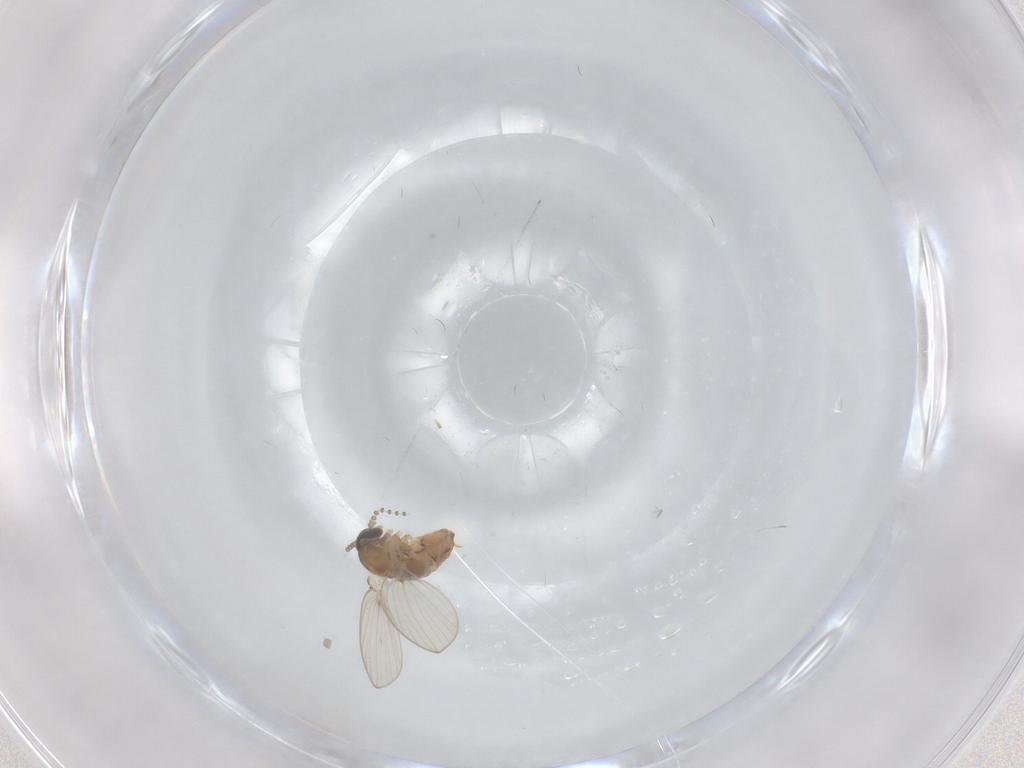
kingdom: Animalia
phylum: Arthropoda
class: Insecta
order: Diptera
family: Psychodidae
